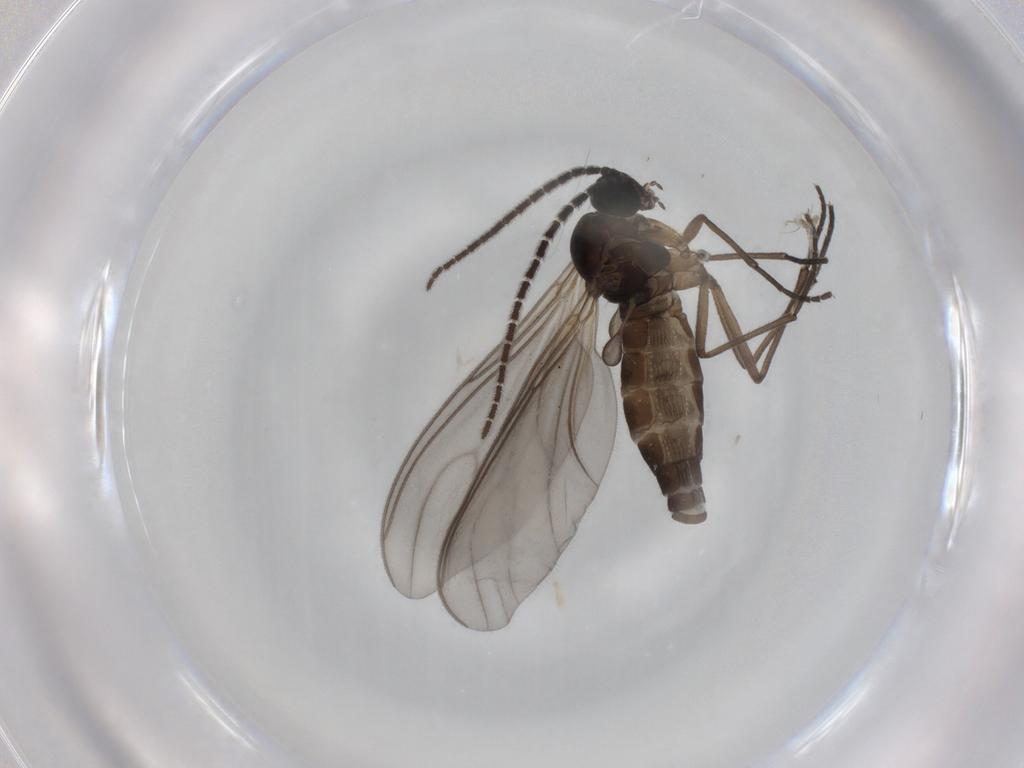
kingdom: Animalia
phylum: Arthropoda
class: Insecta
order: Diptera
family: Sciaridae
